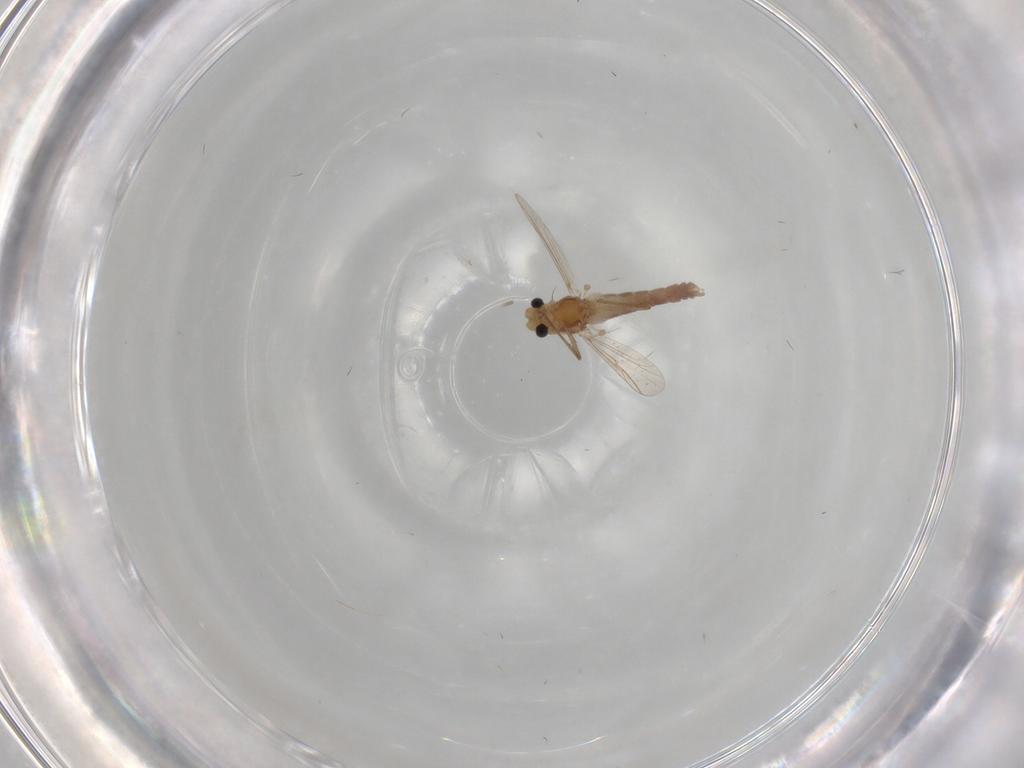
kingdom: Animalia
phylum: Arthropoda
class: Insecta
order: Diptera
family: Chironomidae
